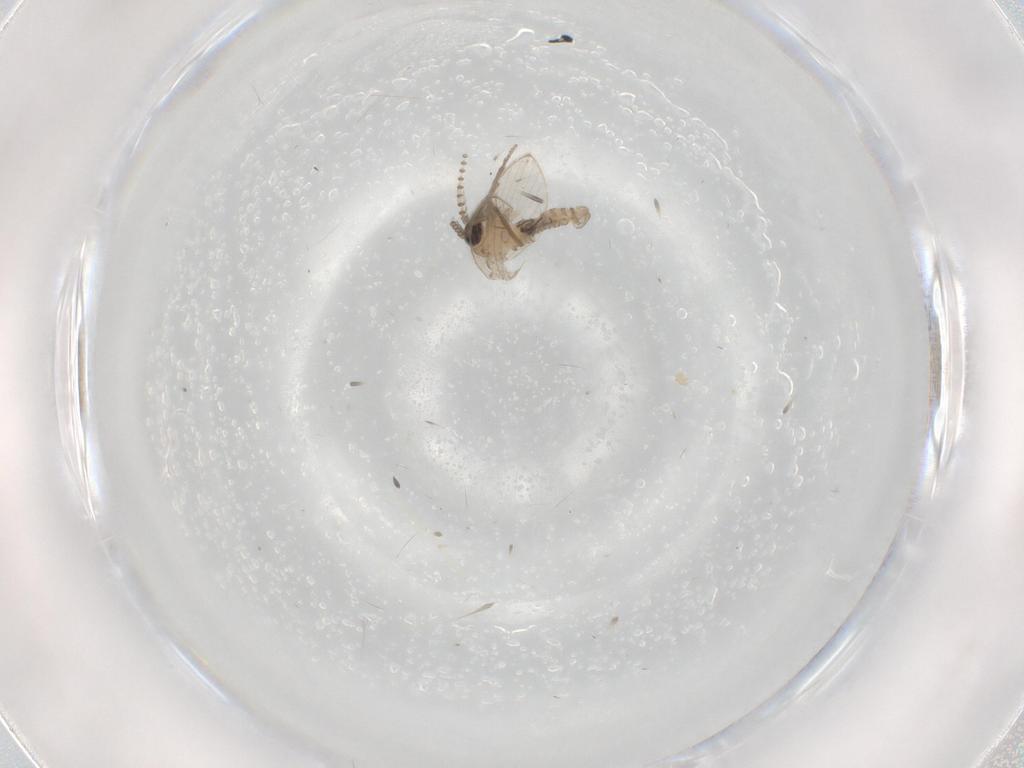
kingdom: Animalia
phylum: Arthropoda
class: Insecta
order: Diptera
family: Psychodidae
